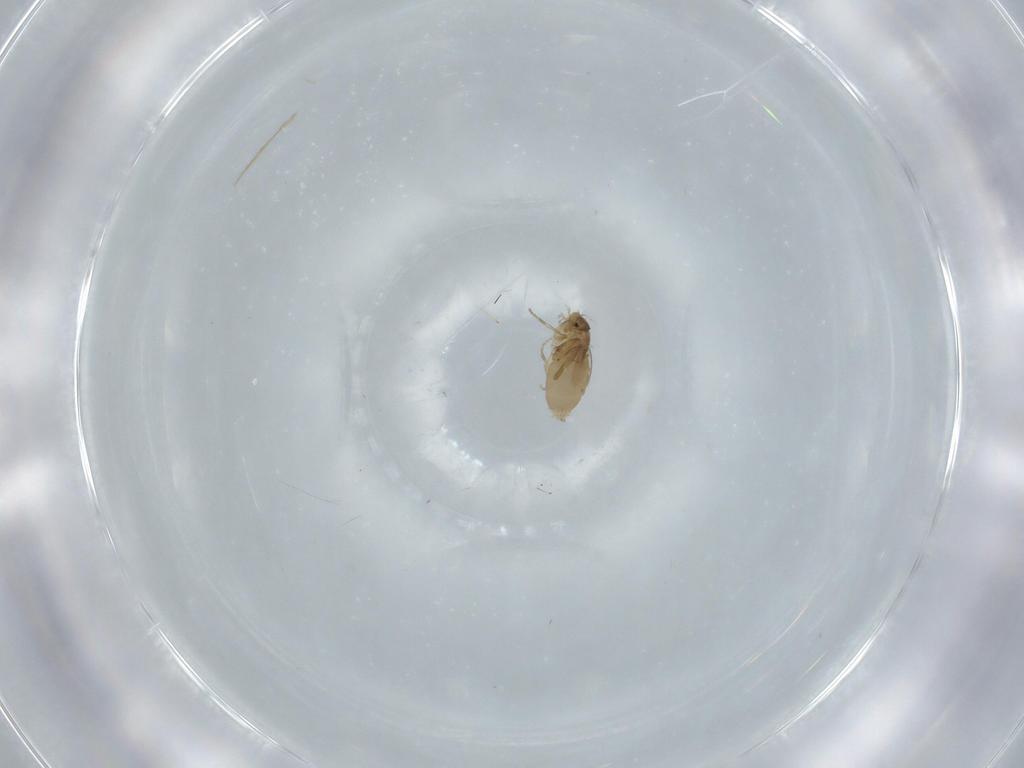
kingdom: Animalia
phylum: Arthropoda
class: Insecta
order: Diptera
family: Phoridae
